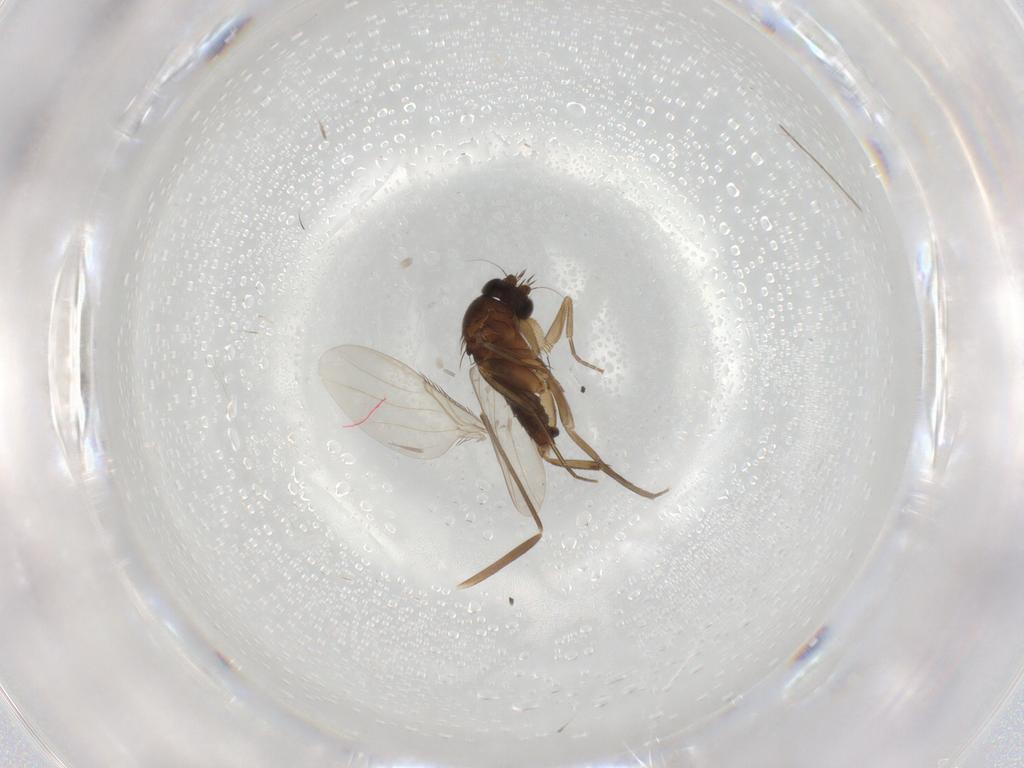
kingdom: Animalia
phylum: Arthropoda
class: Insecta
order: Diptera
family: Phoridae
